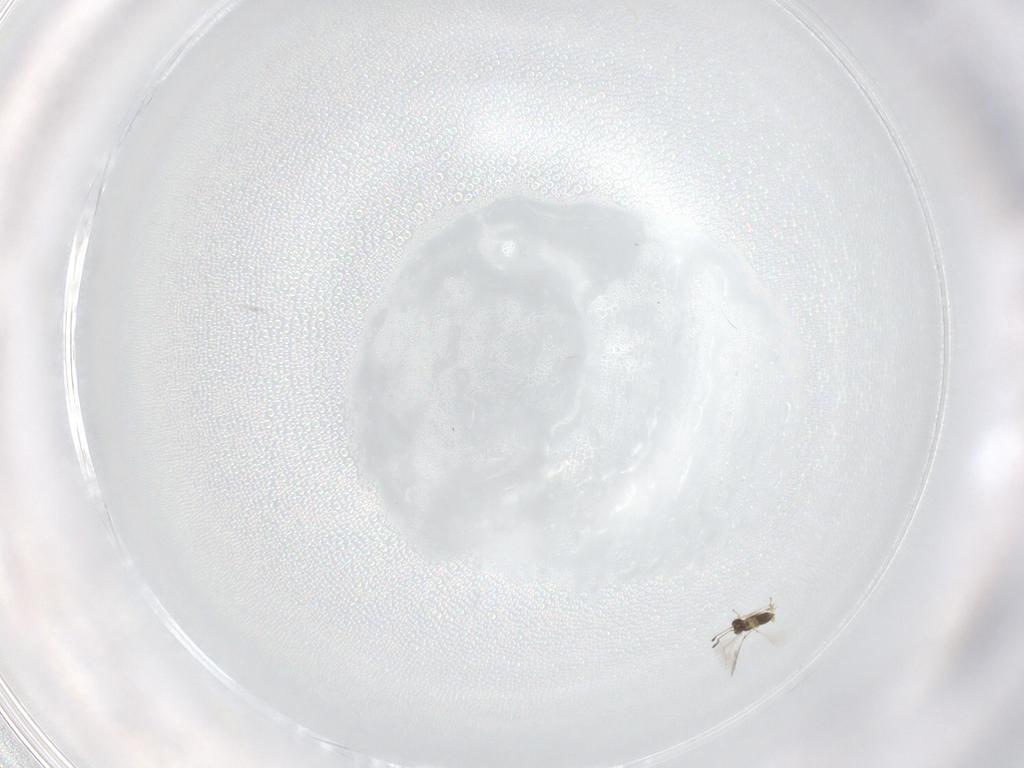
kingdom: Animalia
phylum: Arthropoda
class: Insecta
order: Hymenoptera
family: Mymaridae
